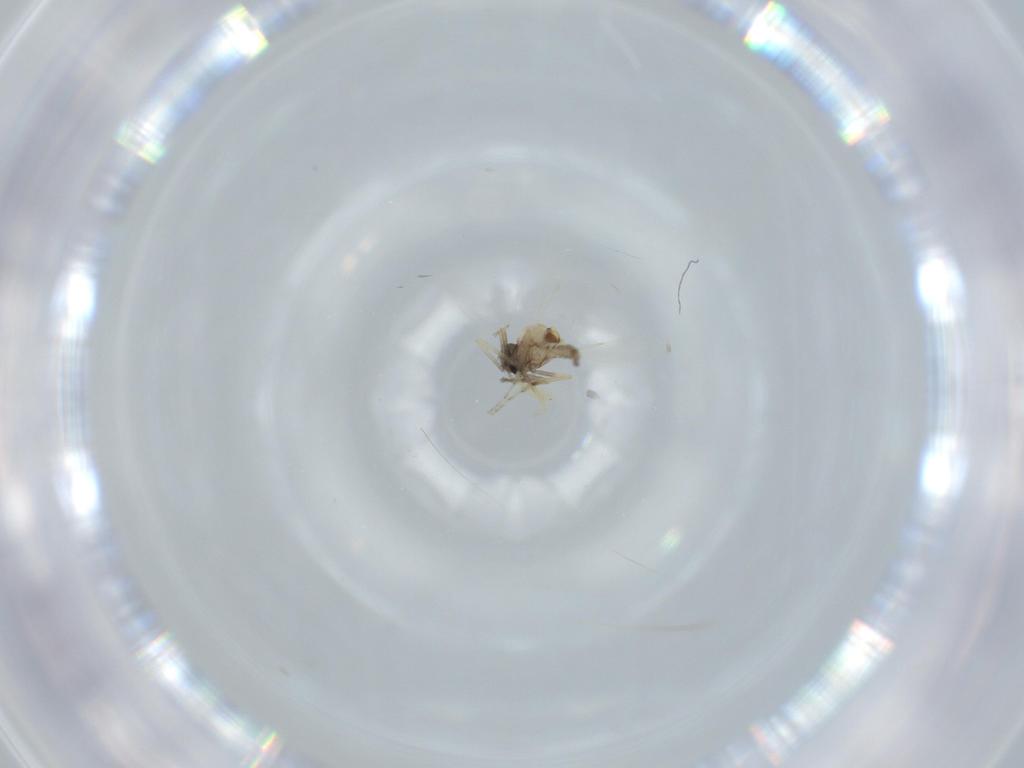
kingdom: Animalia
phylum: Arthropoda
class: Insecta
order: Diptera
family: Ceratopogonidae
